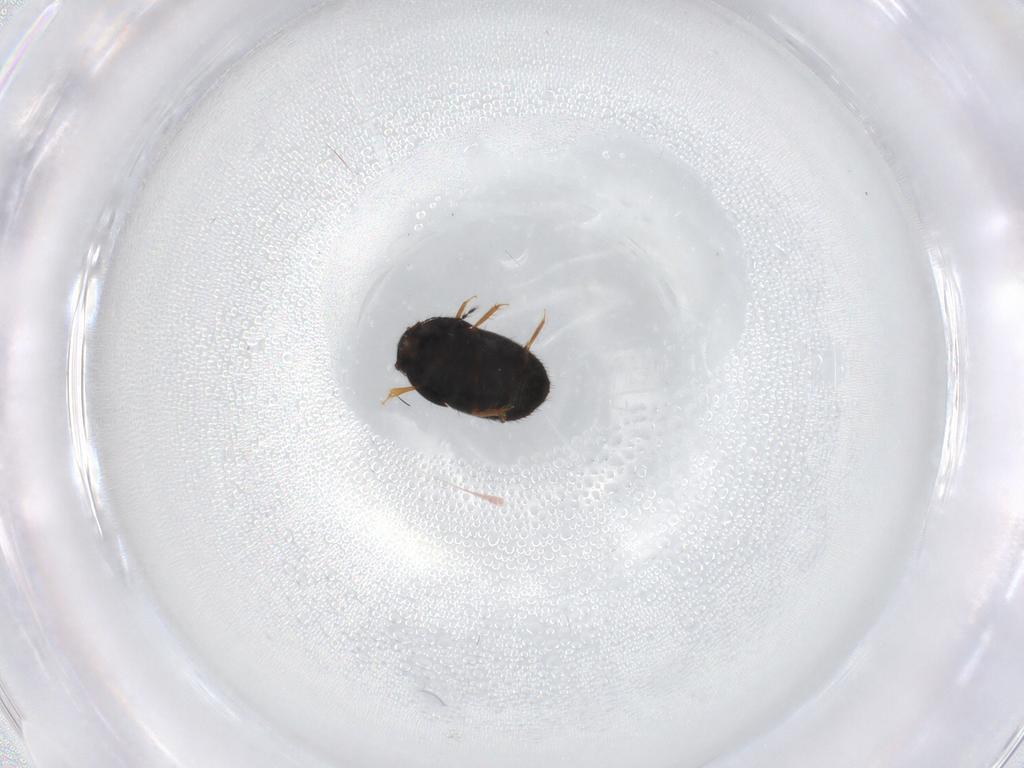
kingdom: Animalia
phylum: Arthropoda
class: Insecta
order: Coleoptera
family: Ptiliidae
